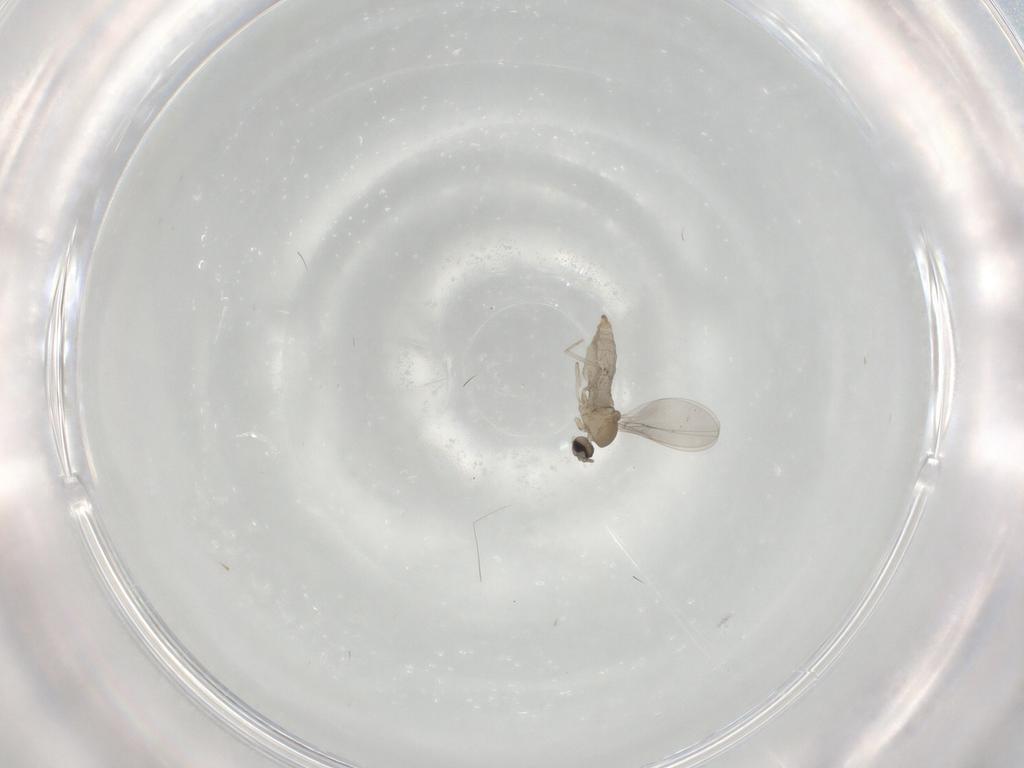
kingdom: Animalia
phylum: Arthropoda
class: Insecta
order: Diptera
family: Cecidomyiidae
